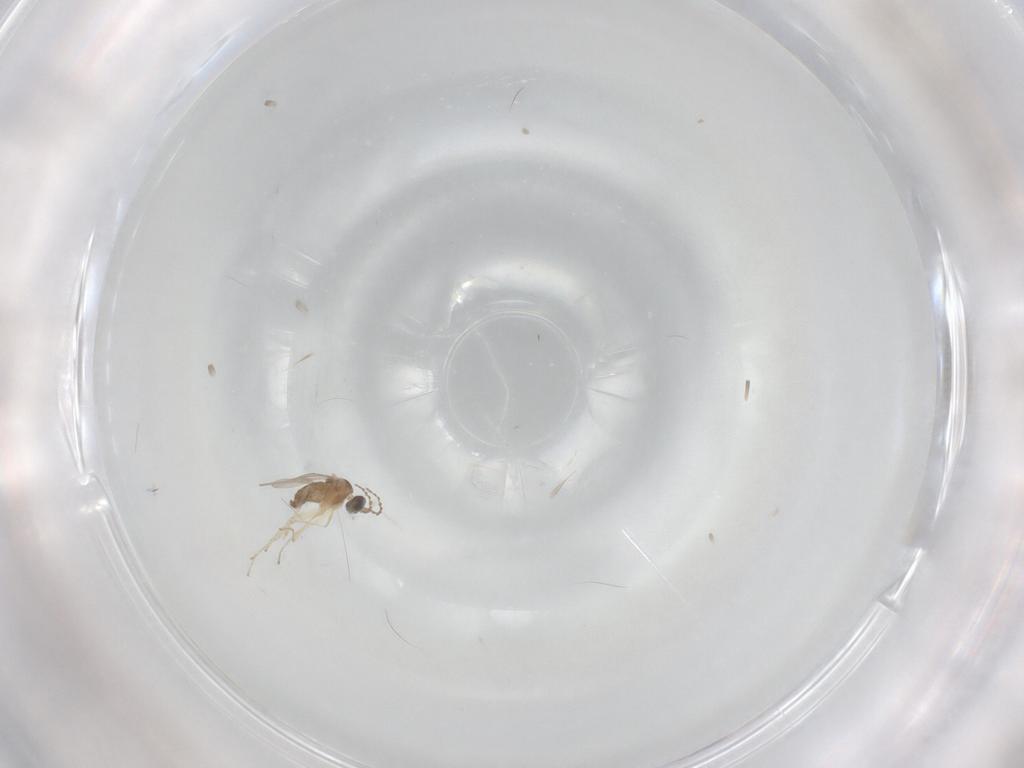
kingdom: Animalia
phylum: Arthropoda
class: Insecta
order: Diptera
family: Cecidomyiidae
